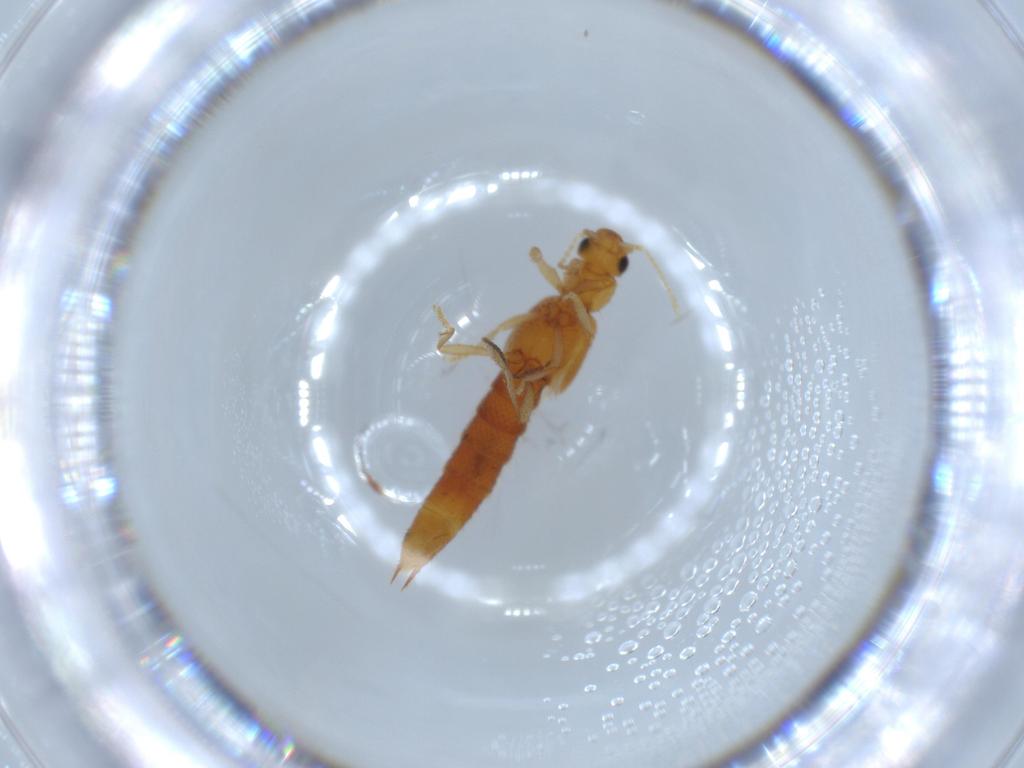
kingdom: Animalia
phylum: Arthropoda
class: Insecta
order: Coleoptera
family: Staphylinidae
